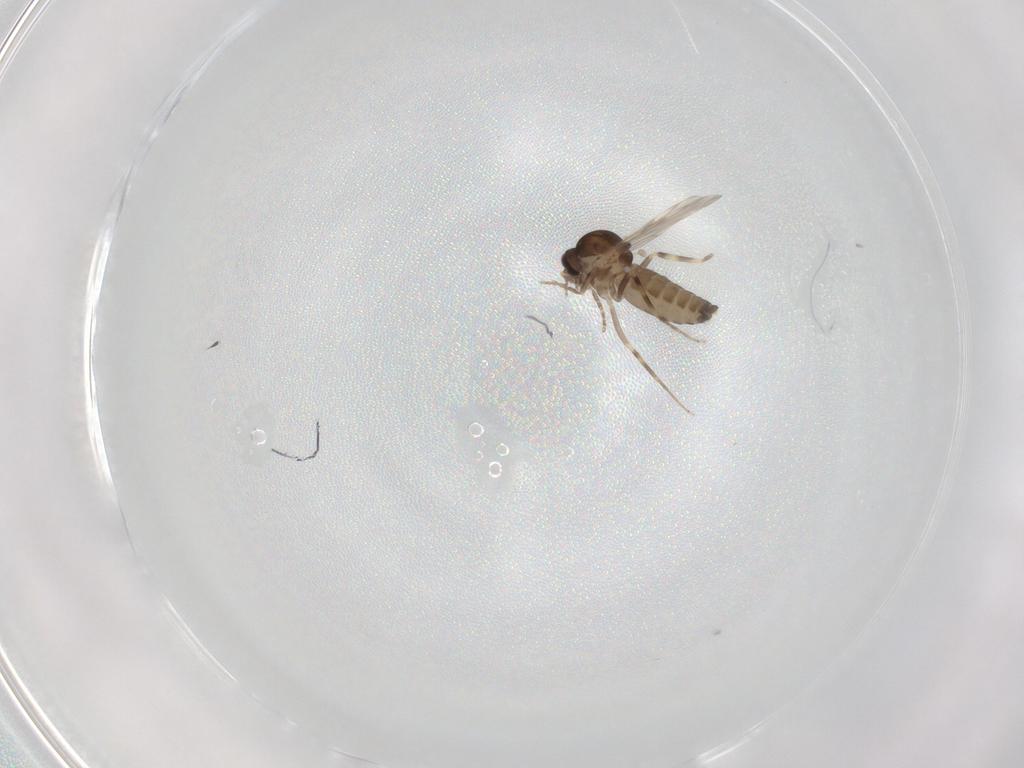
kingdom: Animalia
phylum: Arthropoda
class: Insecta
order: Diptera
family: Ceratopogonidae
